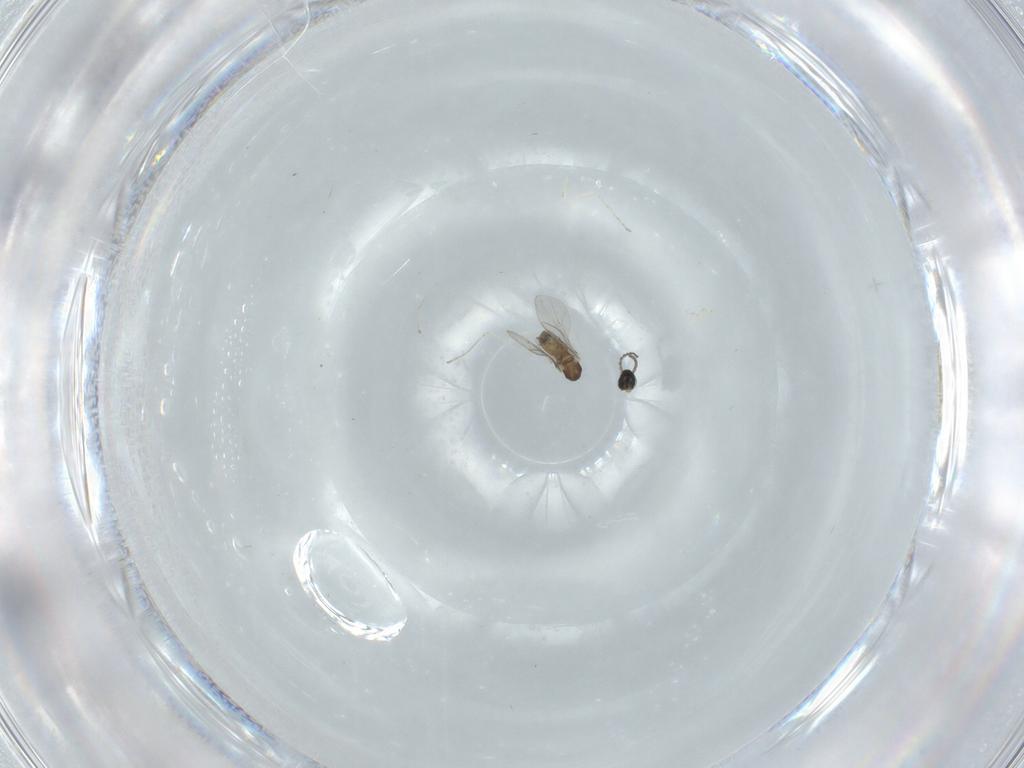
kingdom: Animalia
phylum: Arthropoda
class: Insecta
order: Diptera
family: Cecidomyiidae
